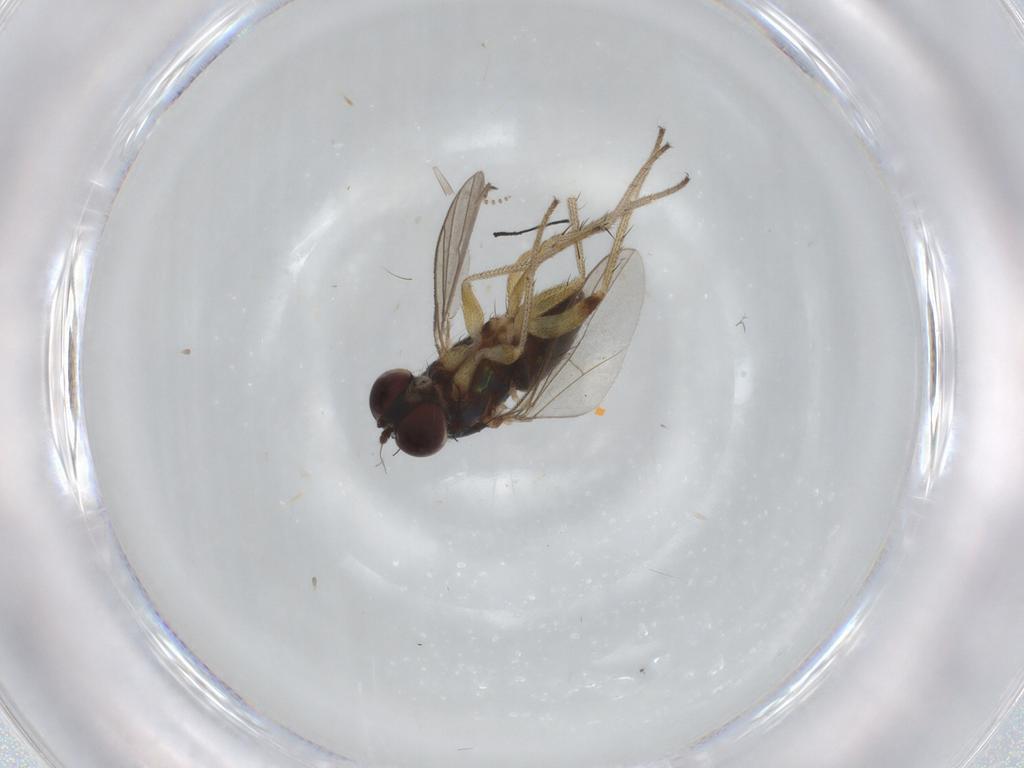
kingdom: Animalia
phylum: Arthropoda
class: Insecta
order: Diptera
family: Dolichopodidae
